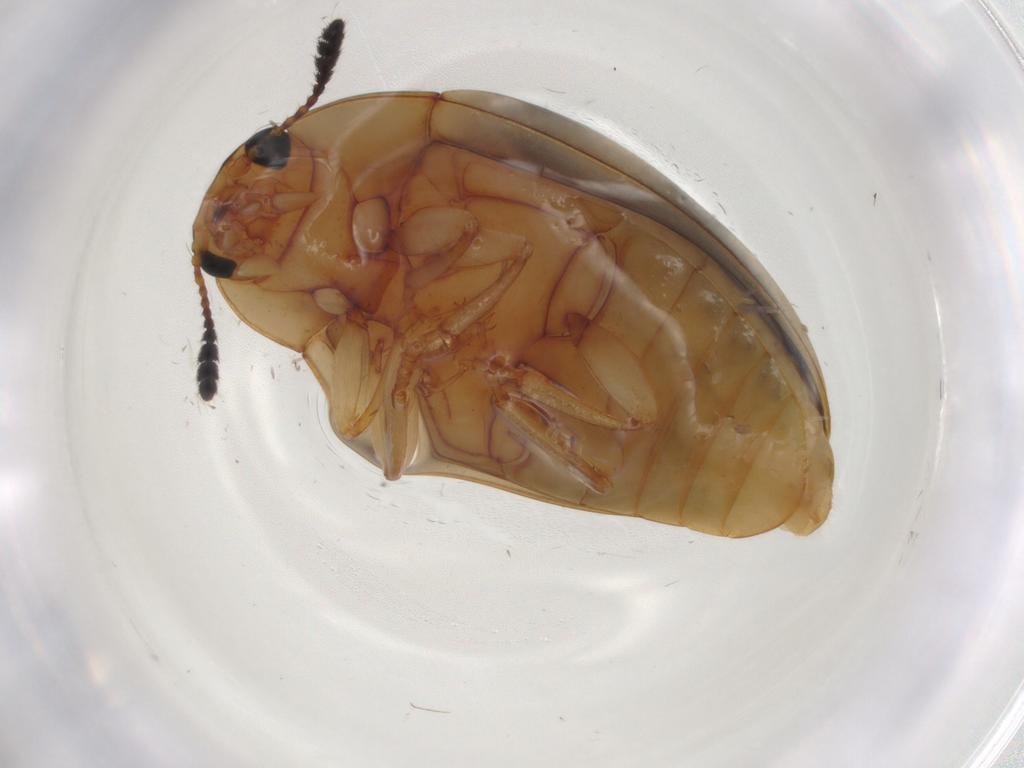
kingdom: Animalia
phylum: Arthropoda
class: Insecta
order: Coleoptera
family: Erotylidae
